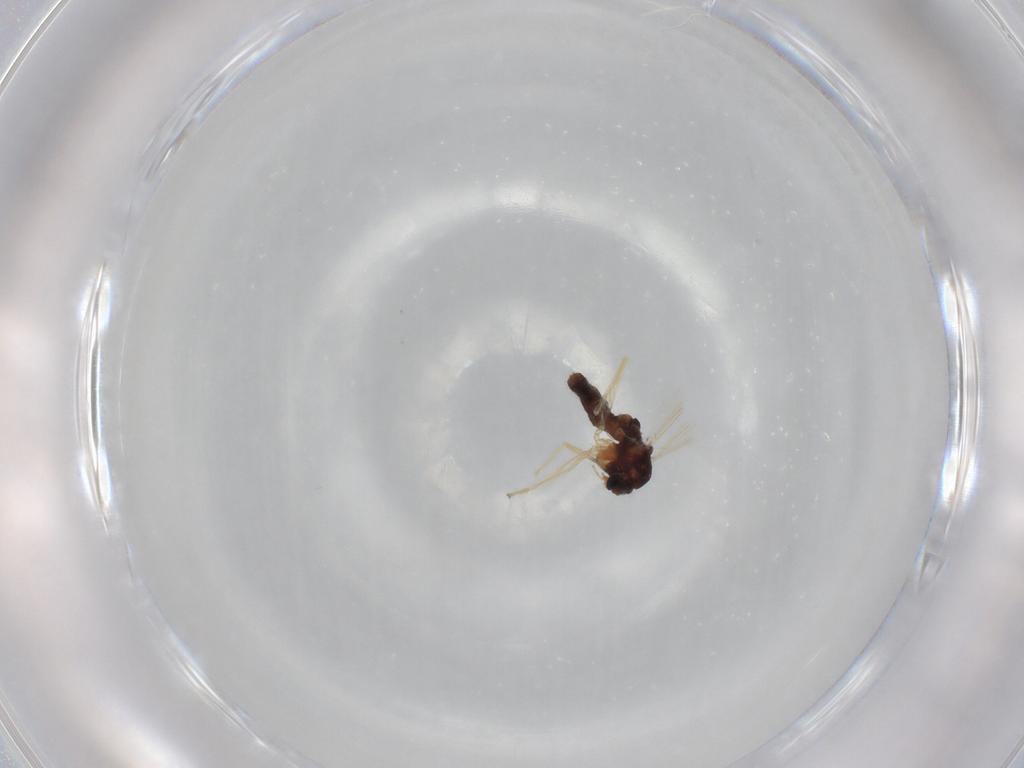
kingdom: Animalia
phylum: Arthropoda
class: Insecta
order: Diptera
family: Chironomidae
